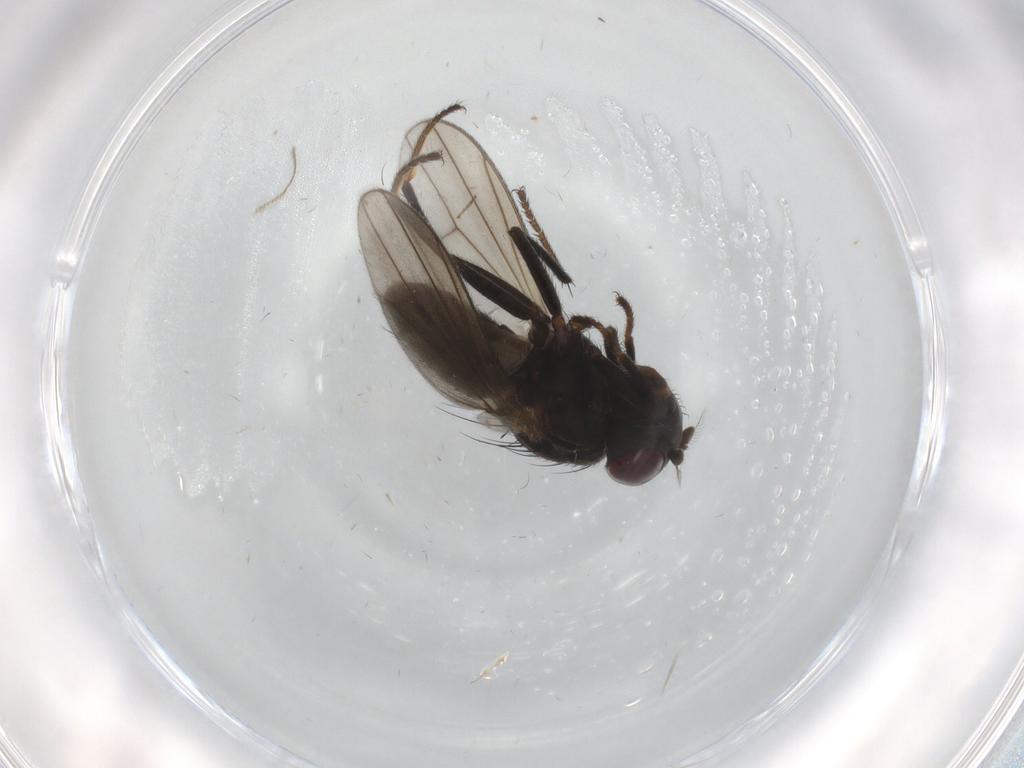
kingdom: Animalia
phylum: Arthropoda
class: Insecta
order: Diptera
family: Ephydridae
